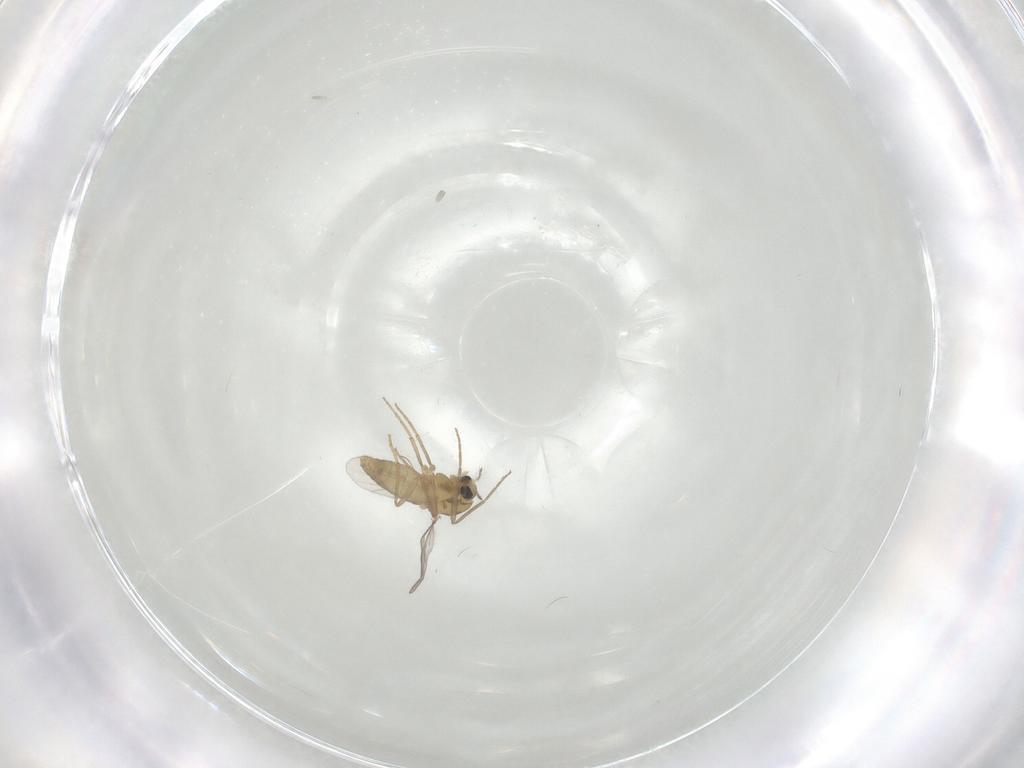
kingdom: Animalia
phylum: Arthropoda
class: Insecta
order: Diptera
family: Chironomidae
